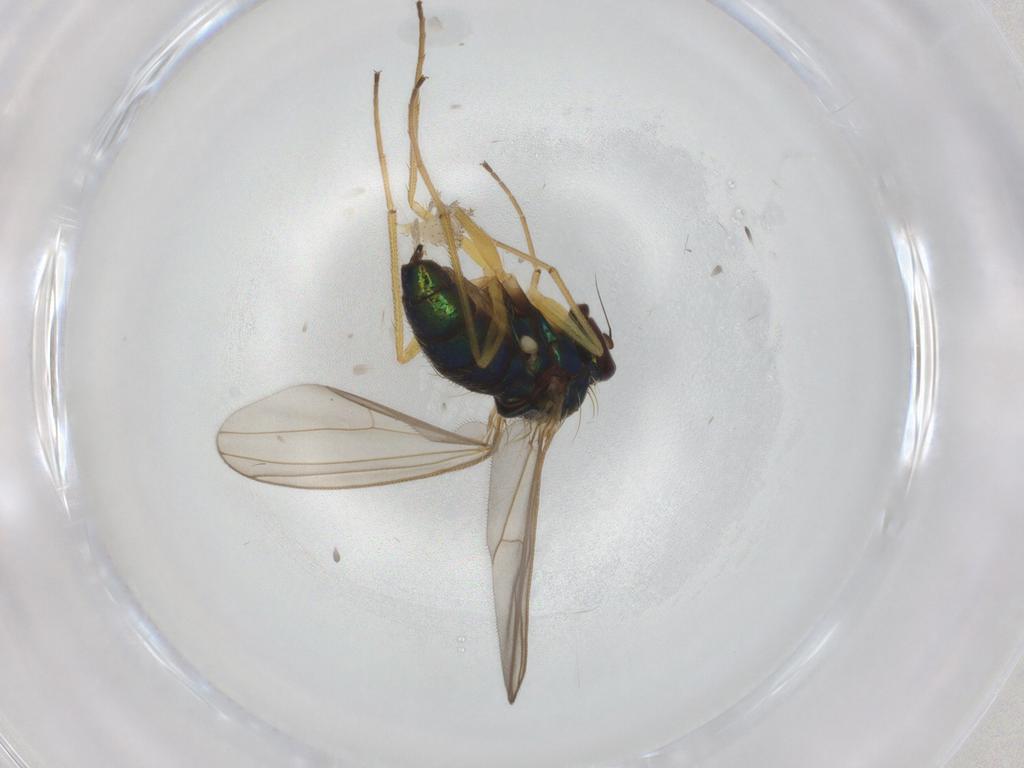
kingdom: Animalia
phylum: Arthropoda
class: Insecta
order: Diptera
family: Dolichopodidae
